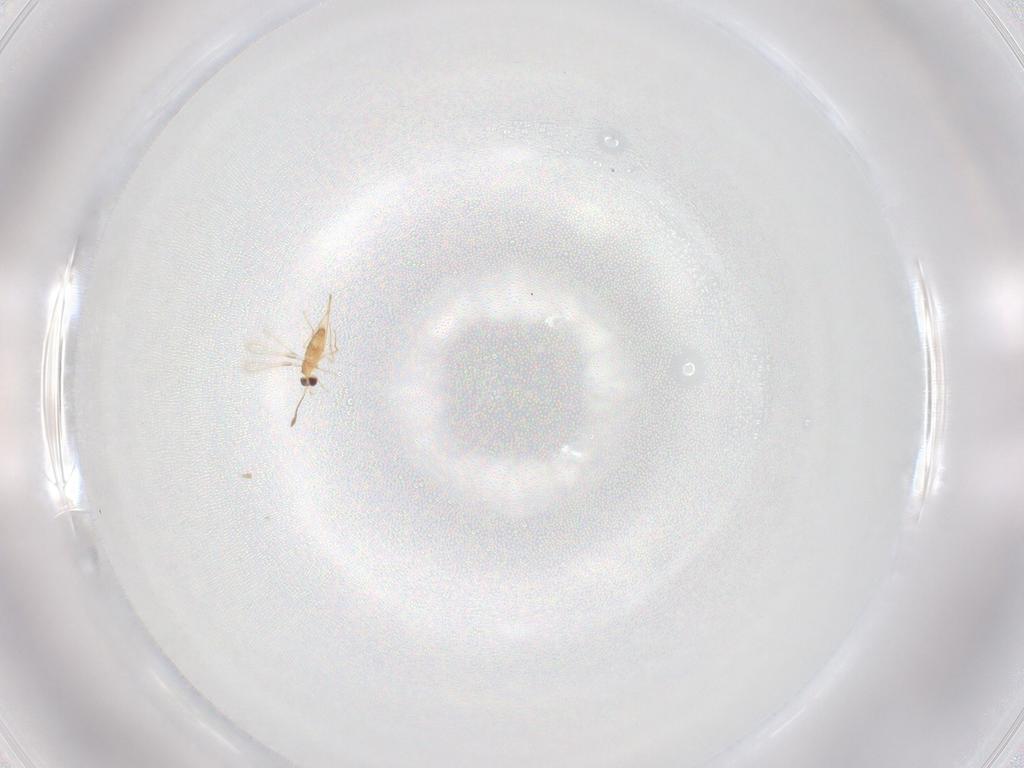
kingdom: Animalia
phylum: Arthropoda
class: Insecta
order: Hymenoptera
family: Mymaridae
